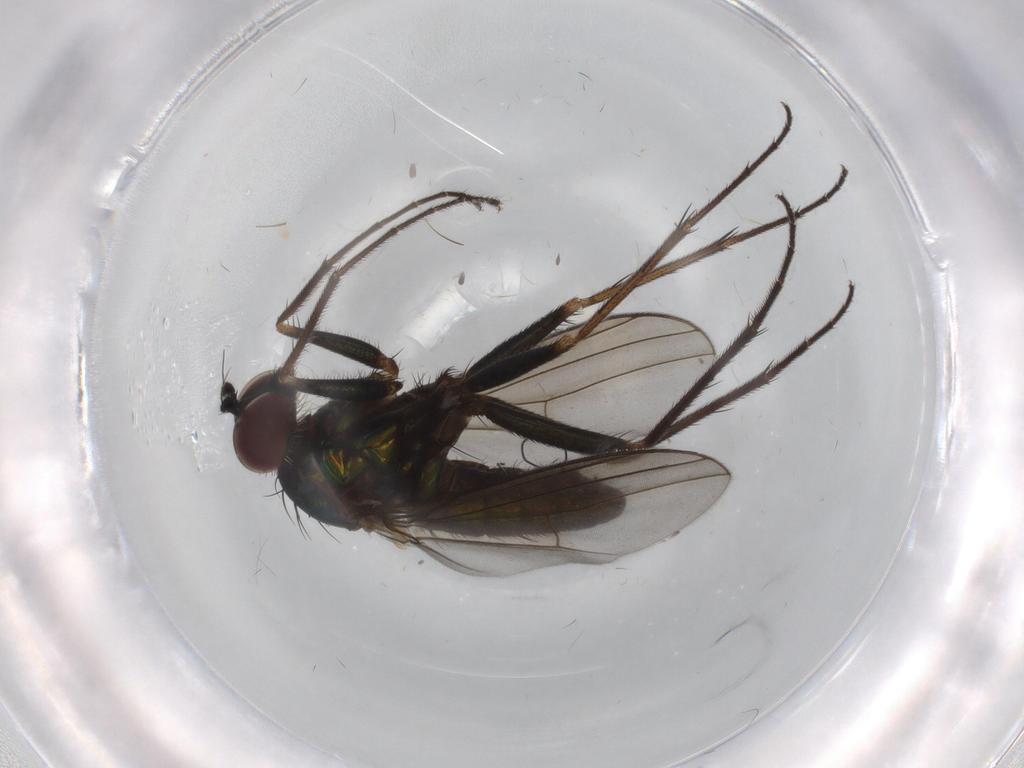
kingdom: Animalia
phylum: Arthropoda
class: Insecta
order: Diptera
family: Dolichopodidae
